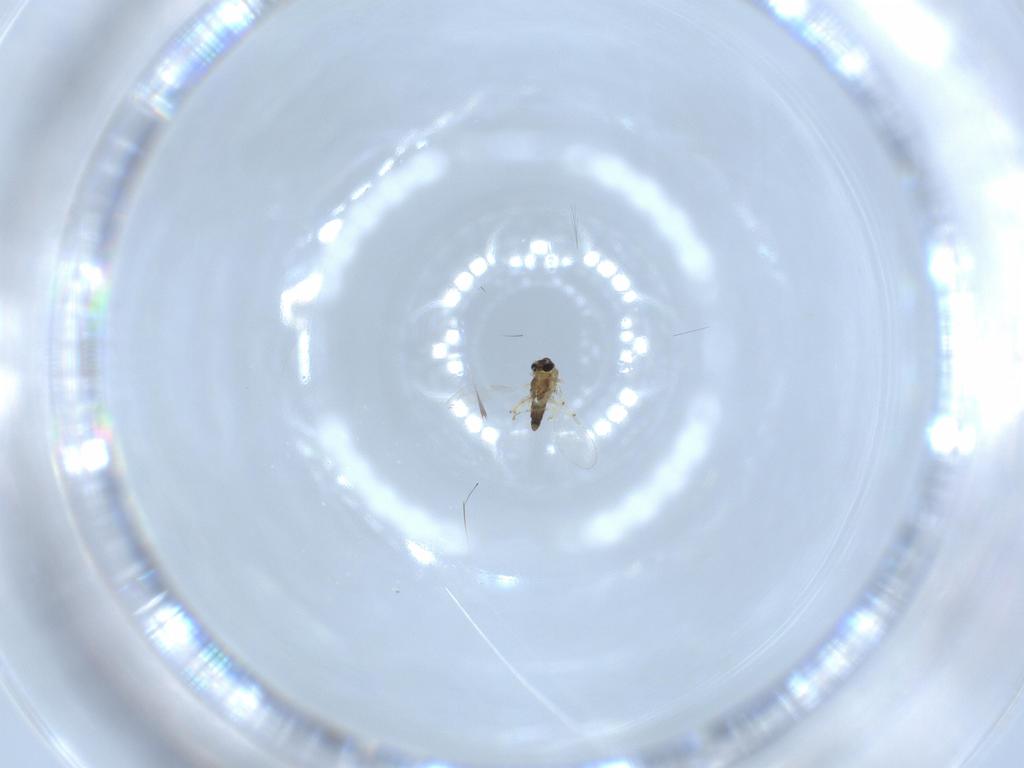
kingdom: Animalia
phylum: Arthropoda
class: Insecta
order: Diptera
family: Chironomidae
